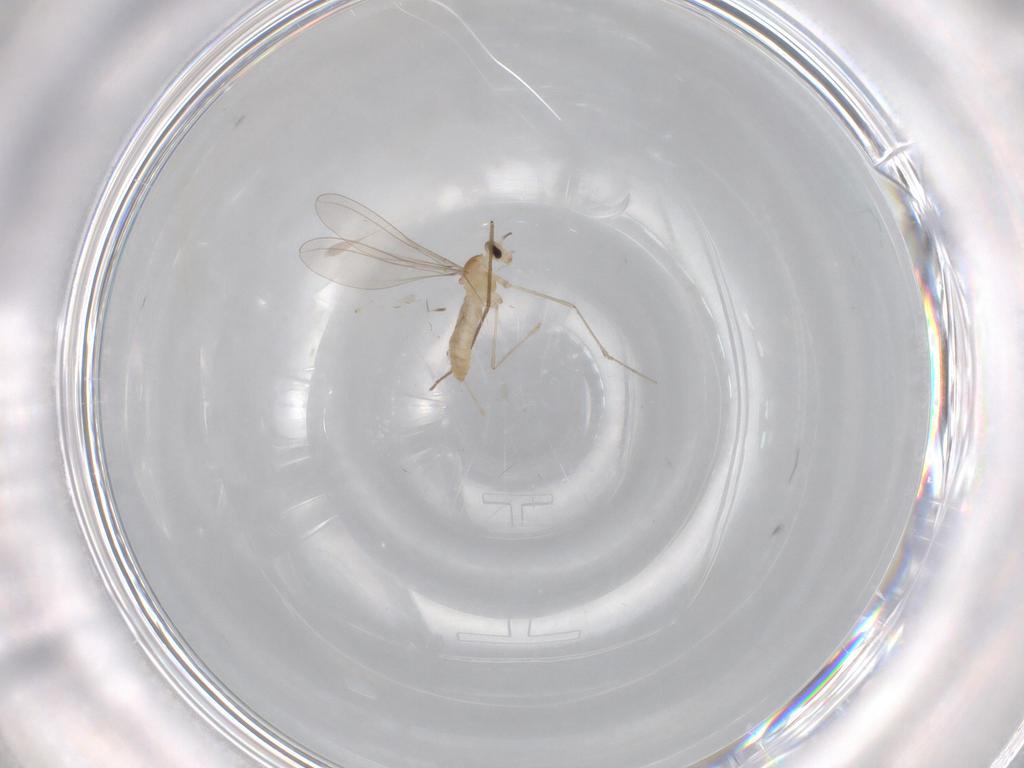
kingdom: Animalia
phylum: Arthropoda
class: Insecta
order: Diptera
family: Cecidomyiidae
